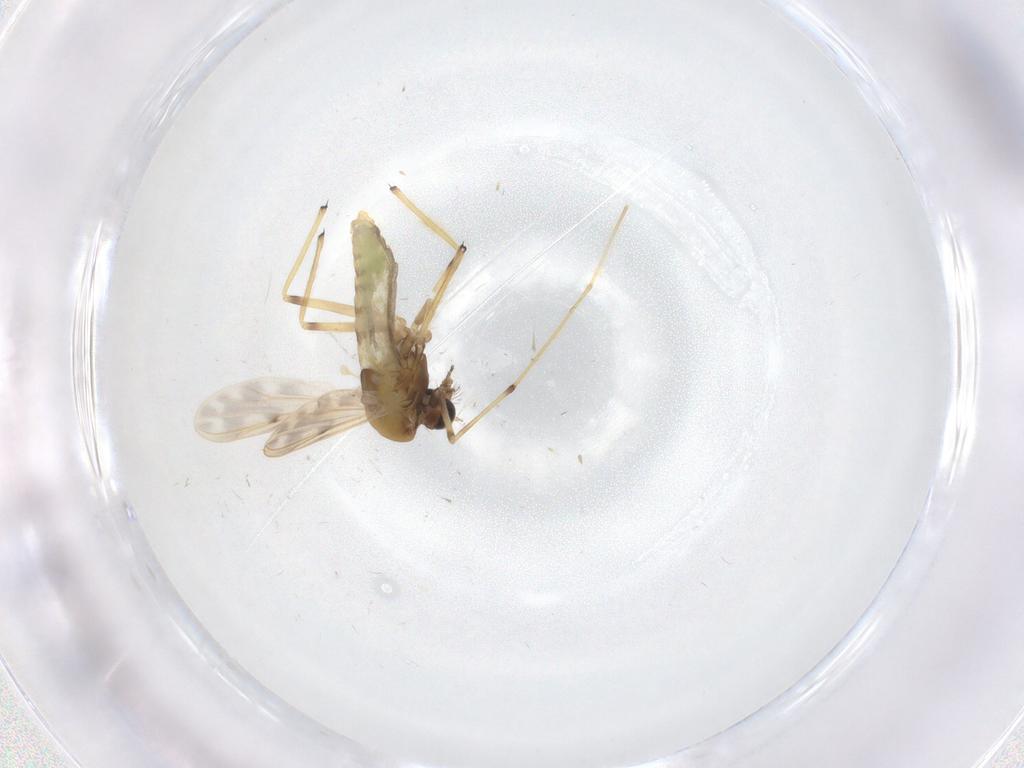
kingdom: Animalia
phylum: Arthropoda
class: Insecta
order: Diptera
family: Chironomidae
